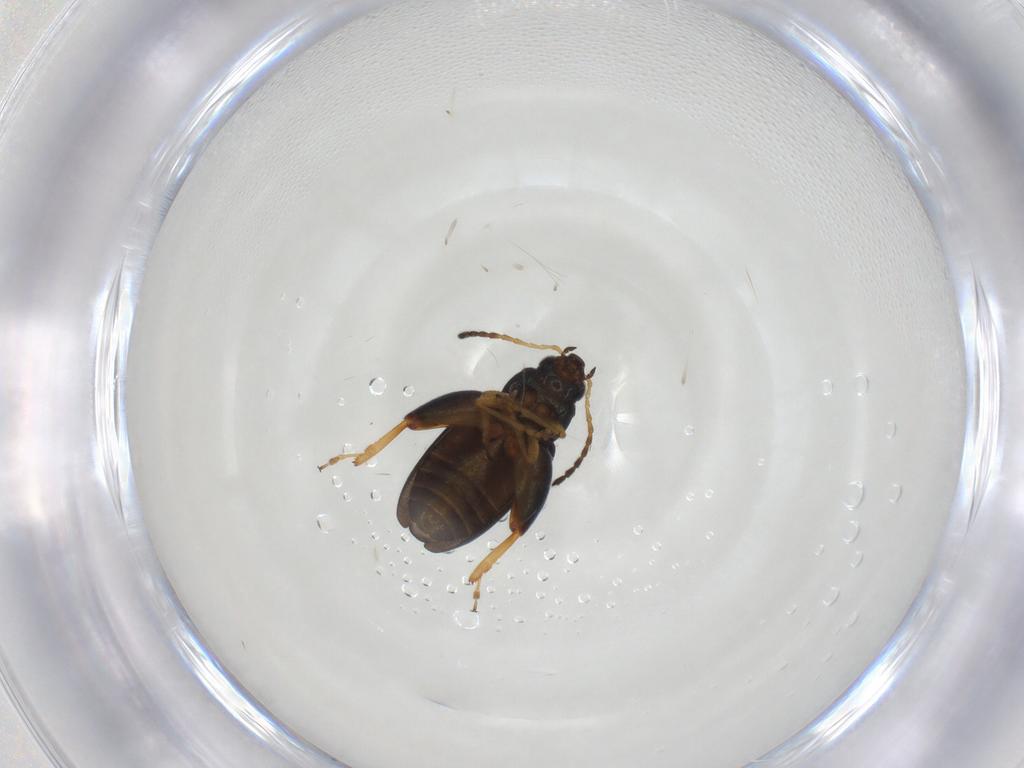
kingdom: Animalia
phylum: Arthropoda
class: Insecta
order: Coleoptera
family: Chrysomelidae
